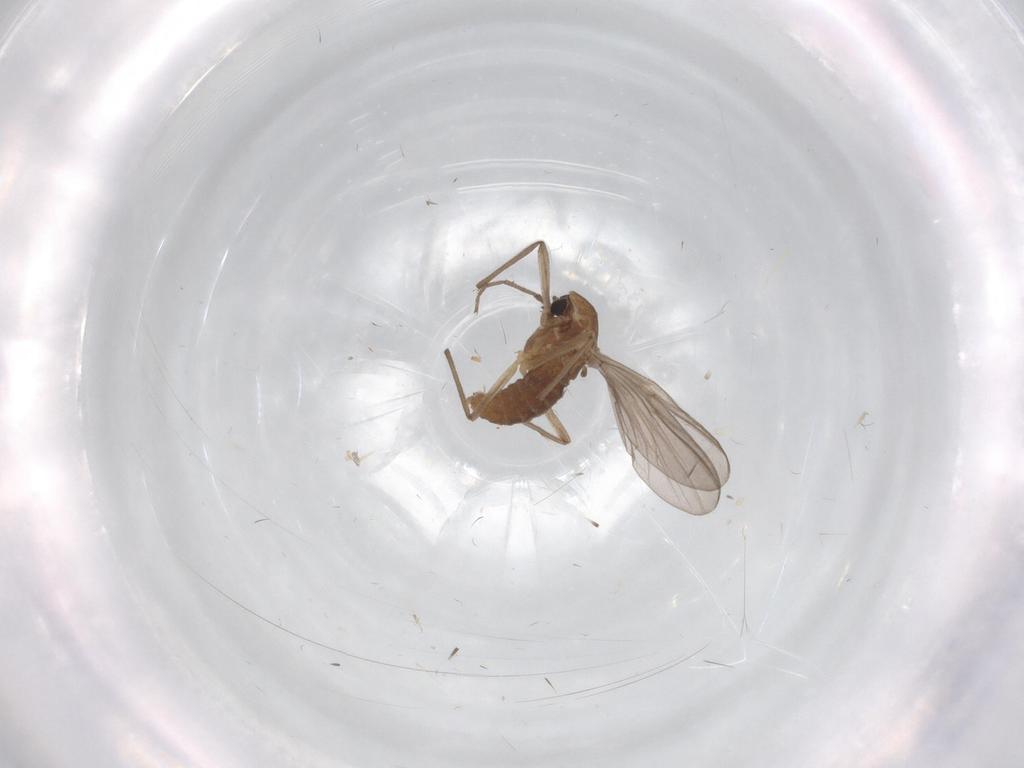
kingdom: Animalia
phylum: Arthropoda
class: Insecta
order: Diptera
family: Chironomidae
